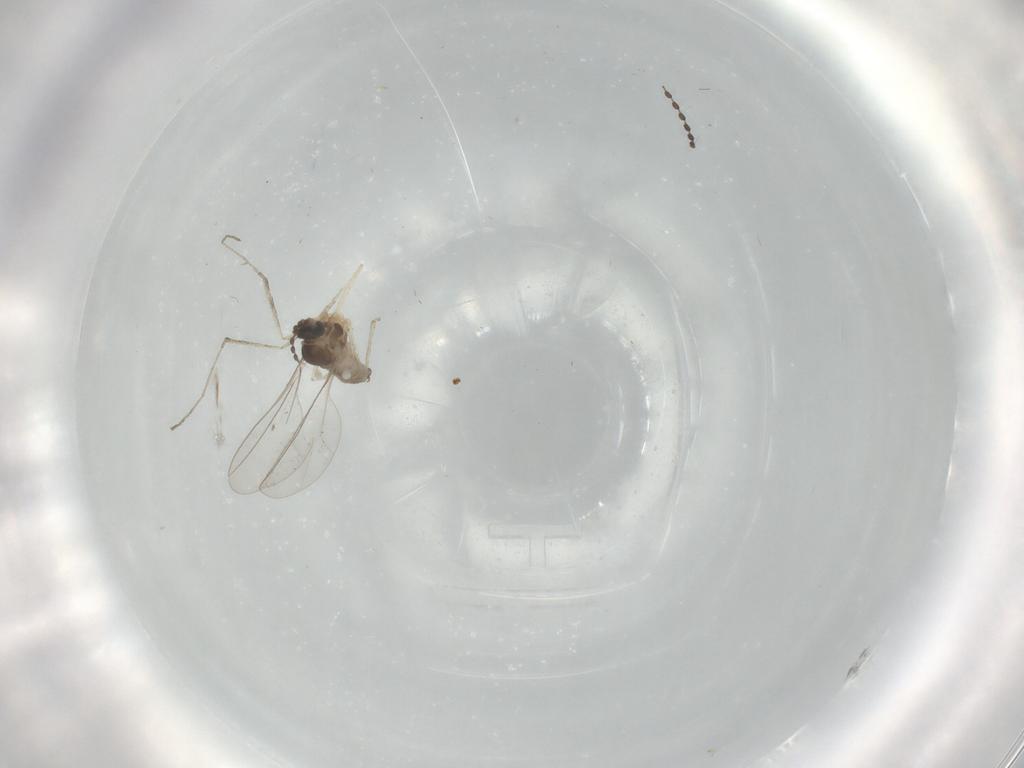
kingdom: Animalia
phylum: Arthropoda
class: Insecta
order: Diptera
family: Cecidomyiidae
